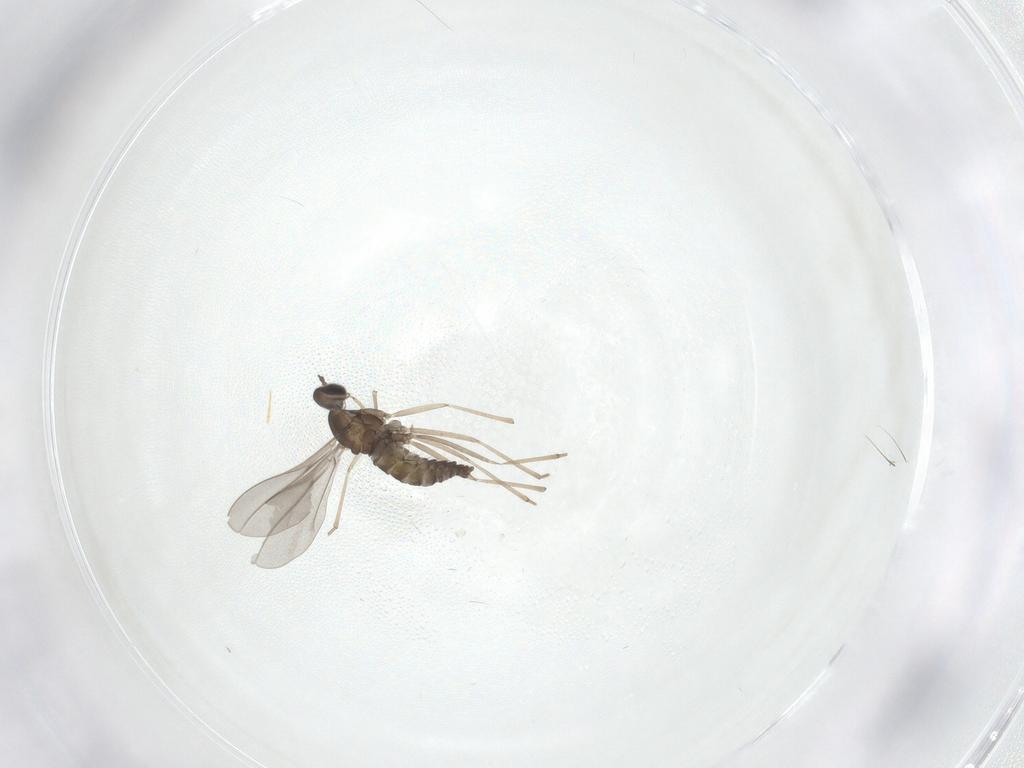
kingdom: Animalia
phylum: Arthropoda
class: Insecta
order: Diptera
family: Ceratopogonidae
